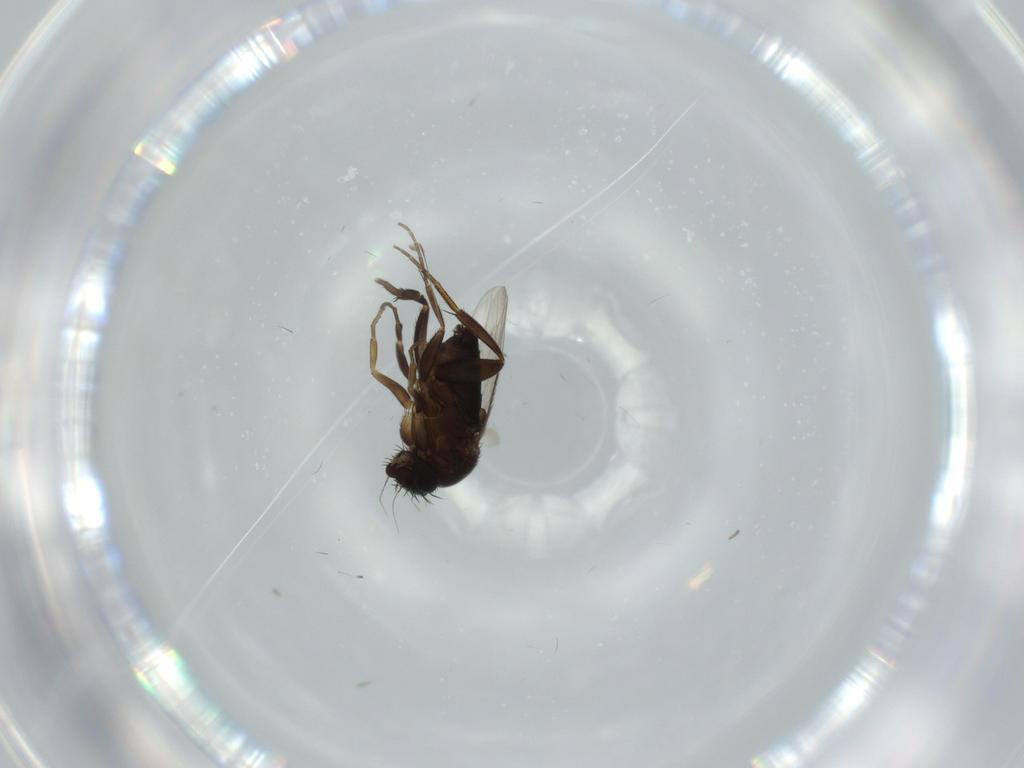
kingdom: Animalia
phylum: Arthropoda
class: Insecta
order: Diptera
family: Phoridae
